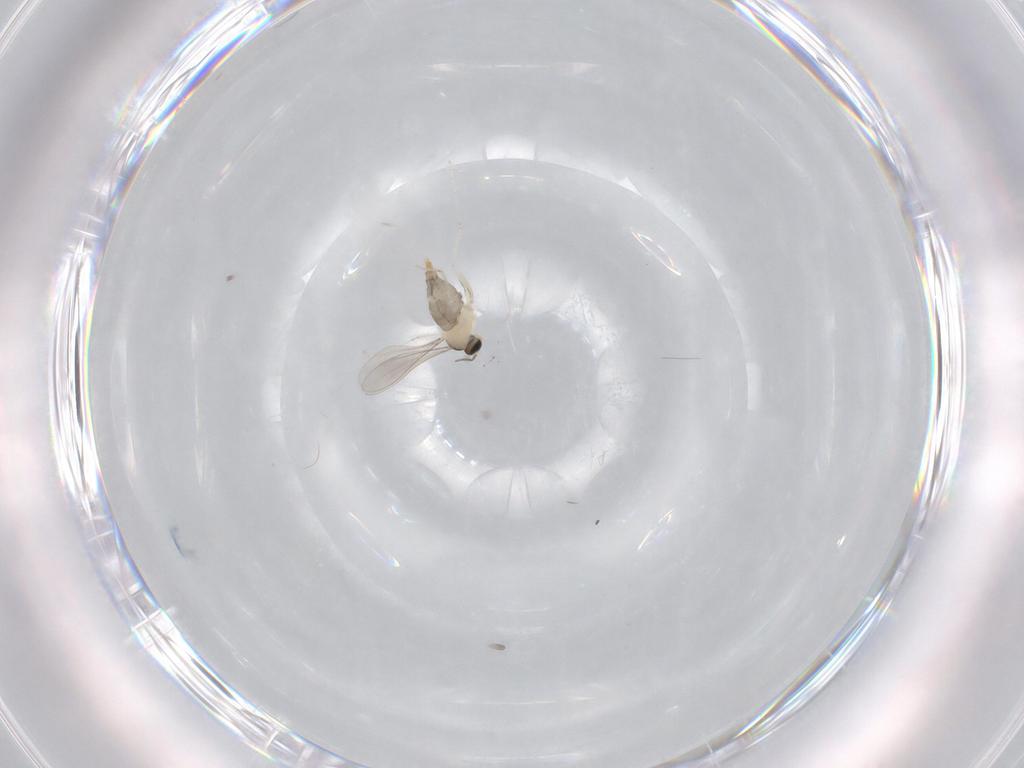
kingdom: Animalia
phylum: Arthropoda
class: Insecta
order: Diptera
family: Cecidomyiidae
